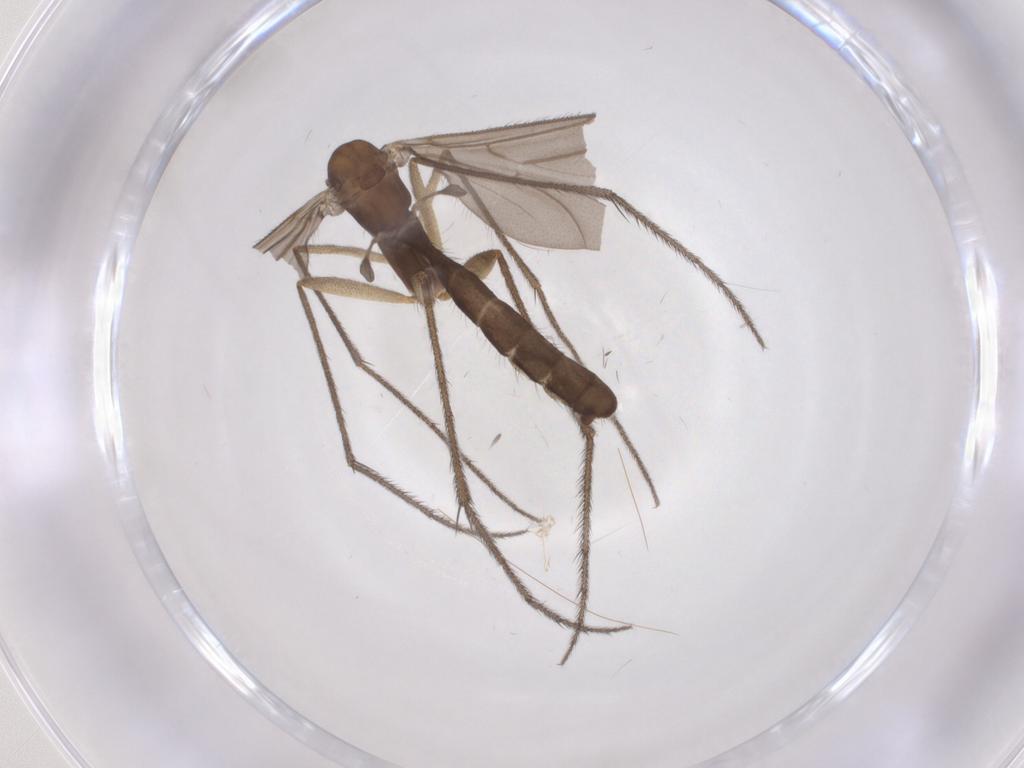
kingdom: Animalia
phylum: Arthropoda
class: Insecta
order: Diptera
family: Ditomyiidae
